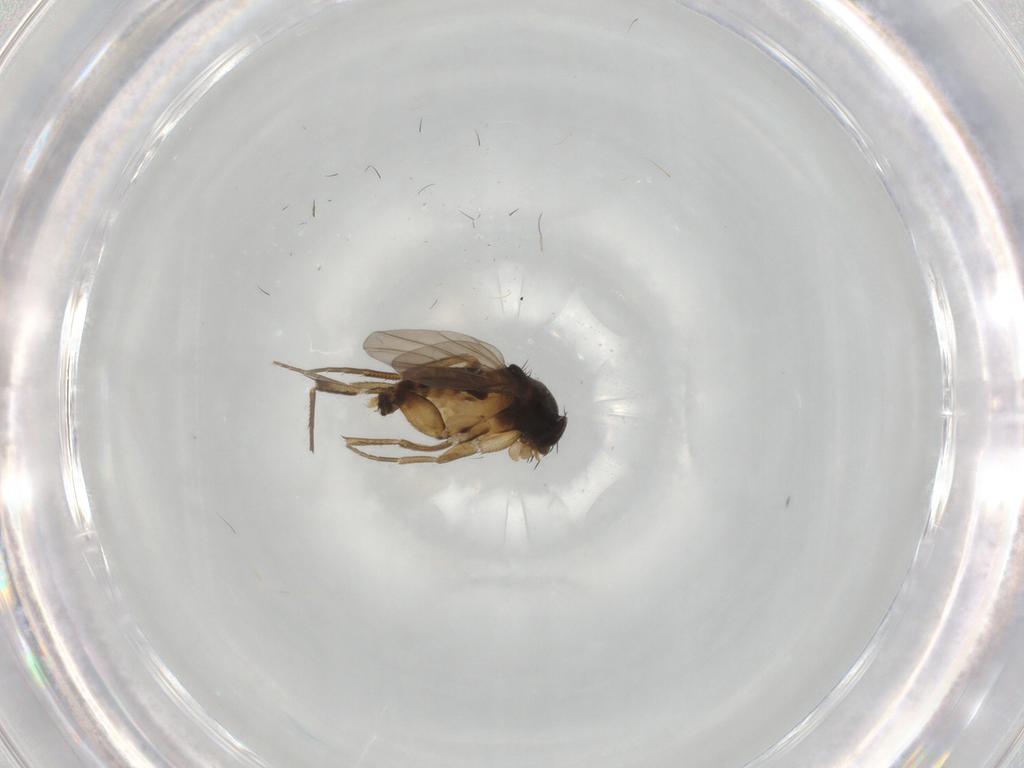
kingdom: Animalia
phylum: Arthropoda
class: Insecta
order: Diptera
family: Phoridae
